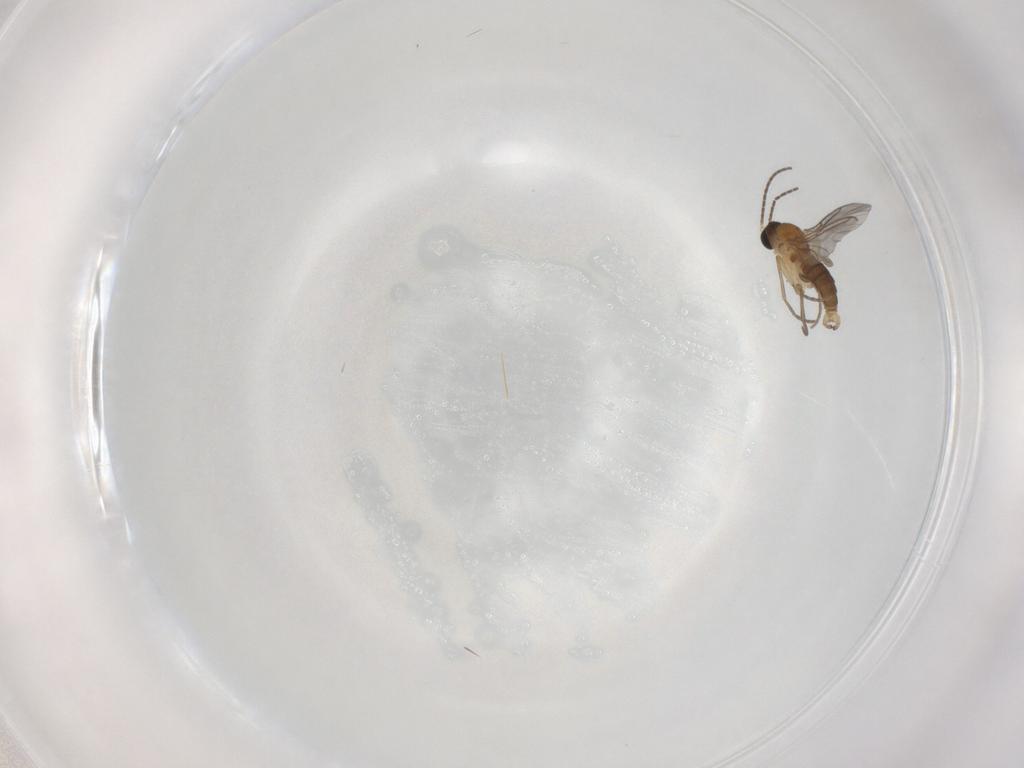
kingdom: Animalia
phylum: Arthropoda
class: Insecta
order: Diptera
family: Sciaridae
